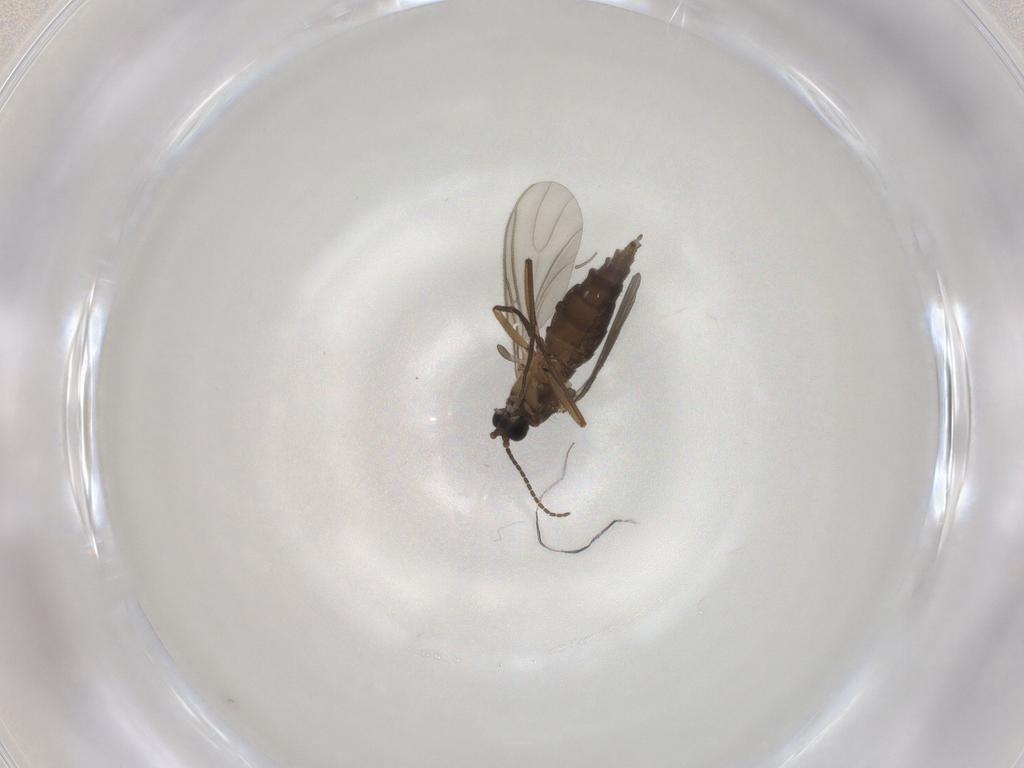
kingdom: Animalia
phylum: Arthropoda
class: Insecta
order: Diptera
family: Sciaridae
